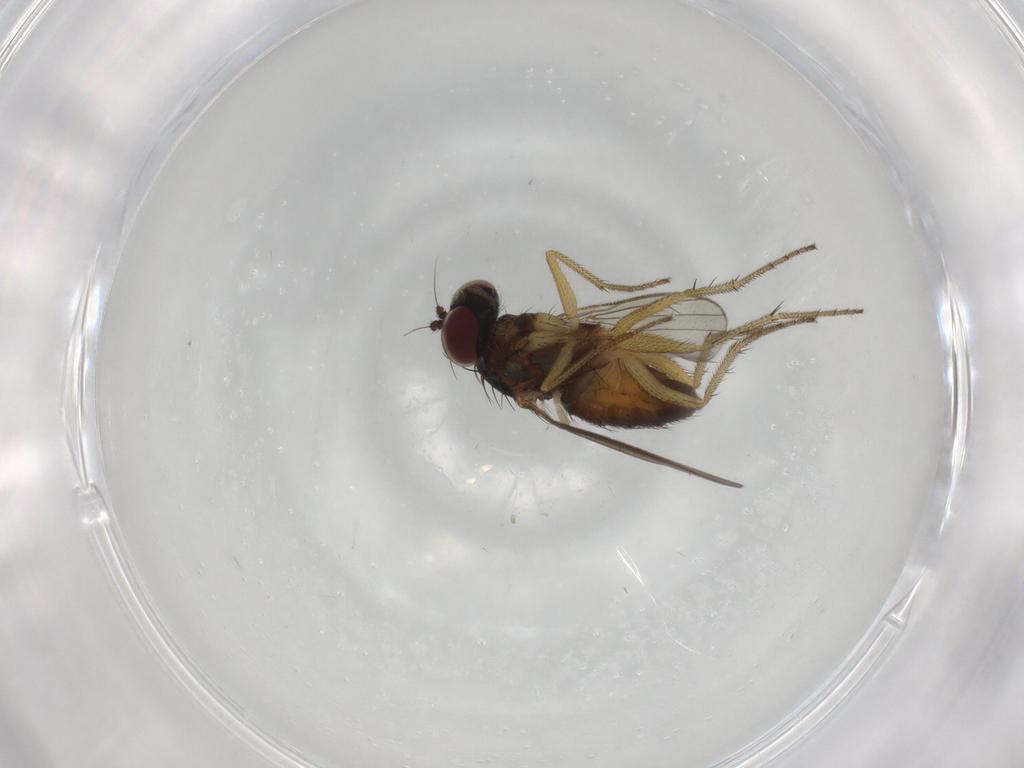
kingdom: Animalia
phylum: Arthropoda
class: Insecta
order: Diptera
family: Dolichopodidae
